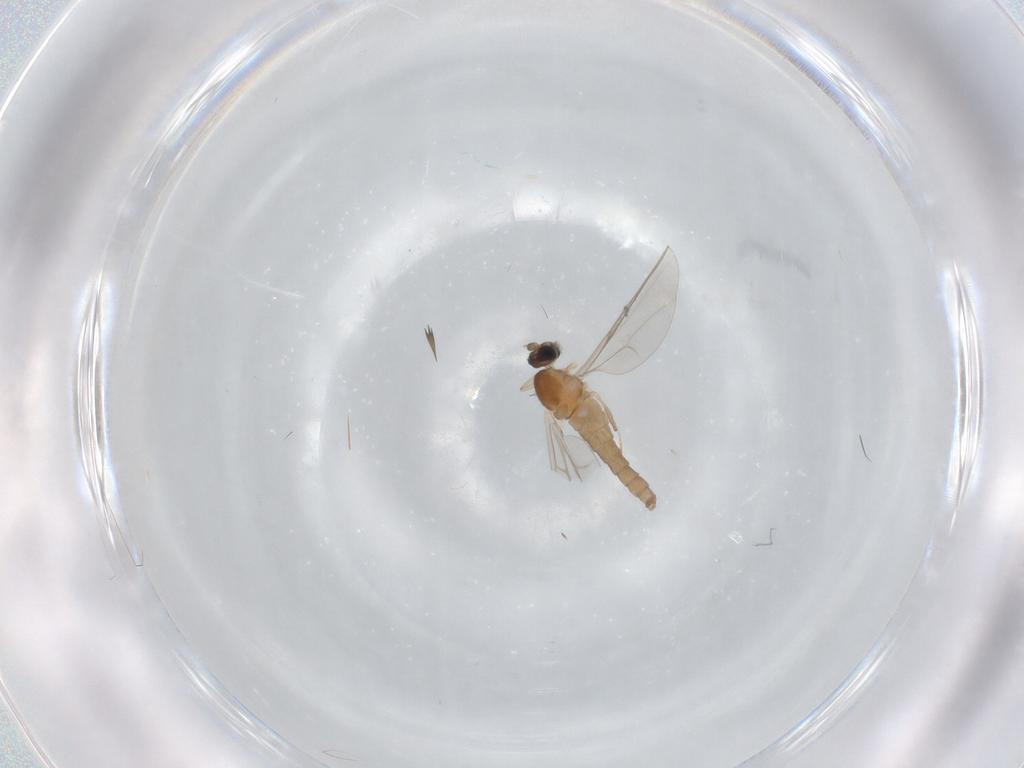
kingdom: Animalia
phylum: Arthropoda
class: Insecta
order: Diptera
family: Cecidomyiidae
